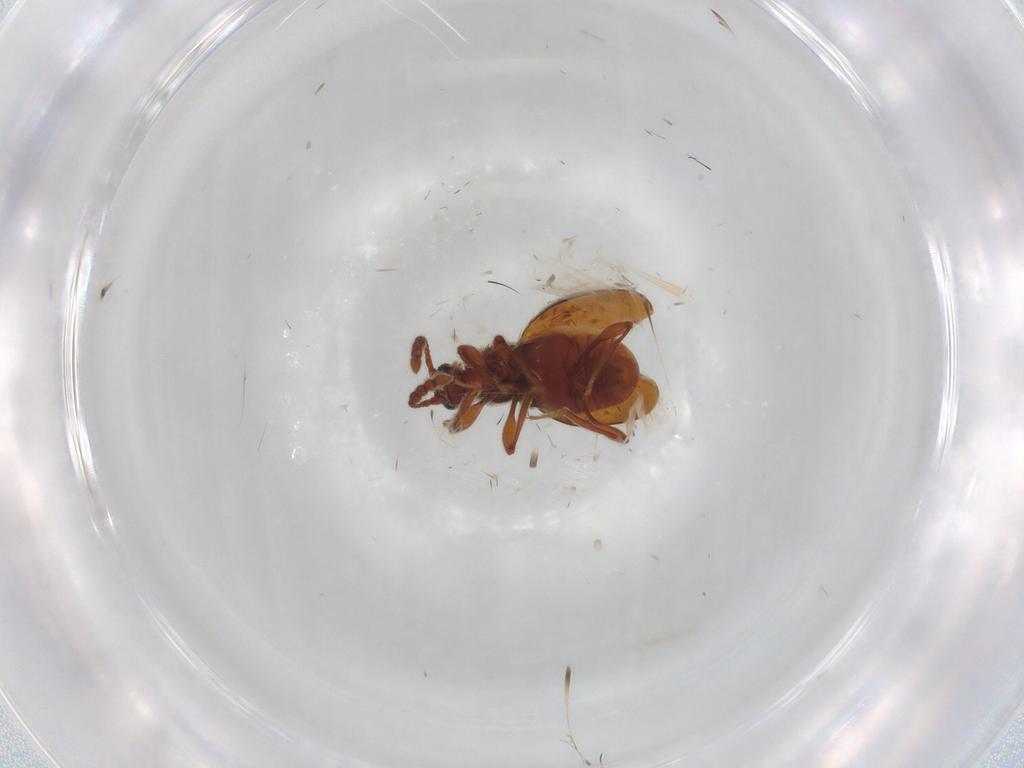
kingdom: Animalia
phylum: Arthropoda
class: Insecta
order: Coleoptera
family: Chrysomelidae
